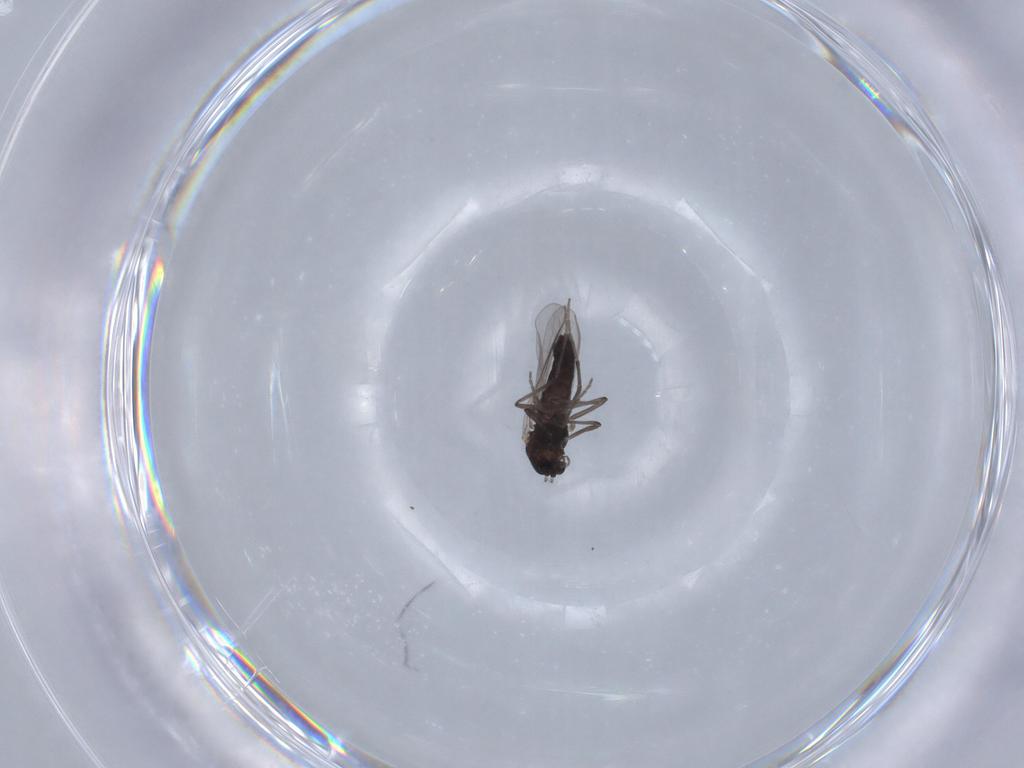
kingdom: Animalia
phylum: Arthropoda
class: Insecta
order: Diptera
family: Chironomidae
